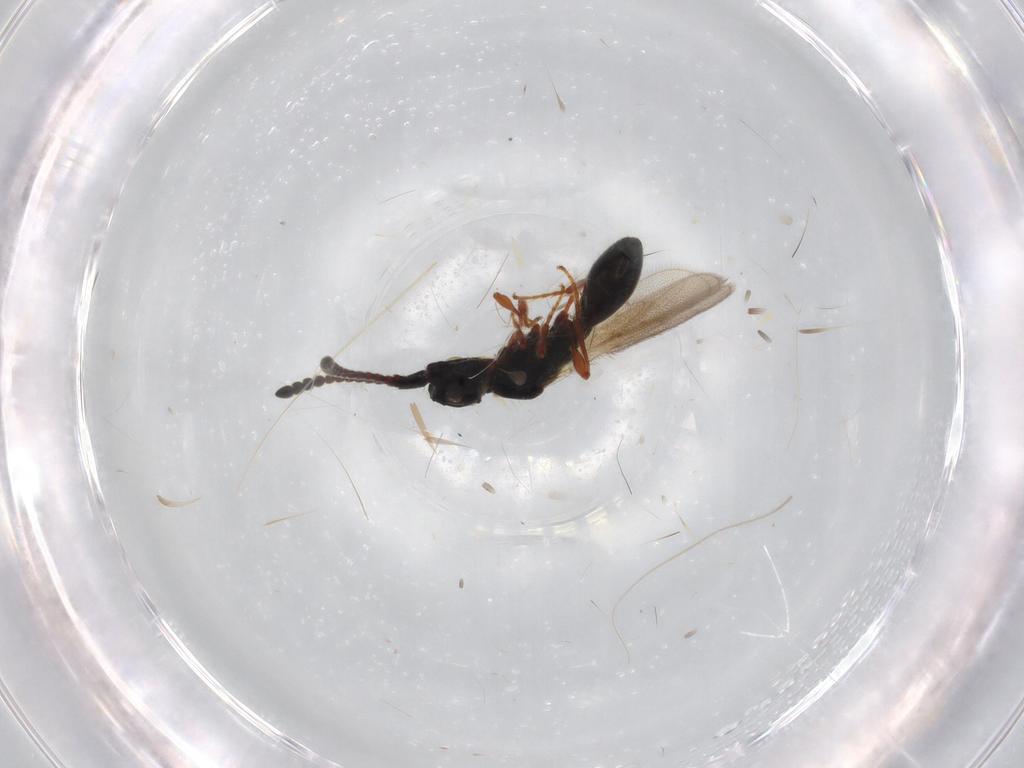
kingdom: Animalia
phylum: Arthropoda
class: Insecta
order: Hymenoptera
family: Diapriidae
